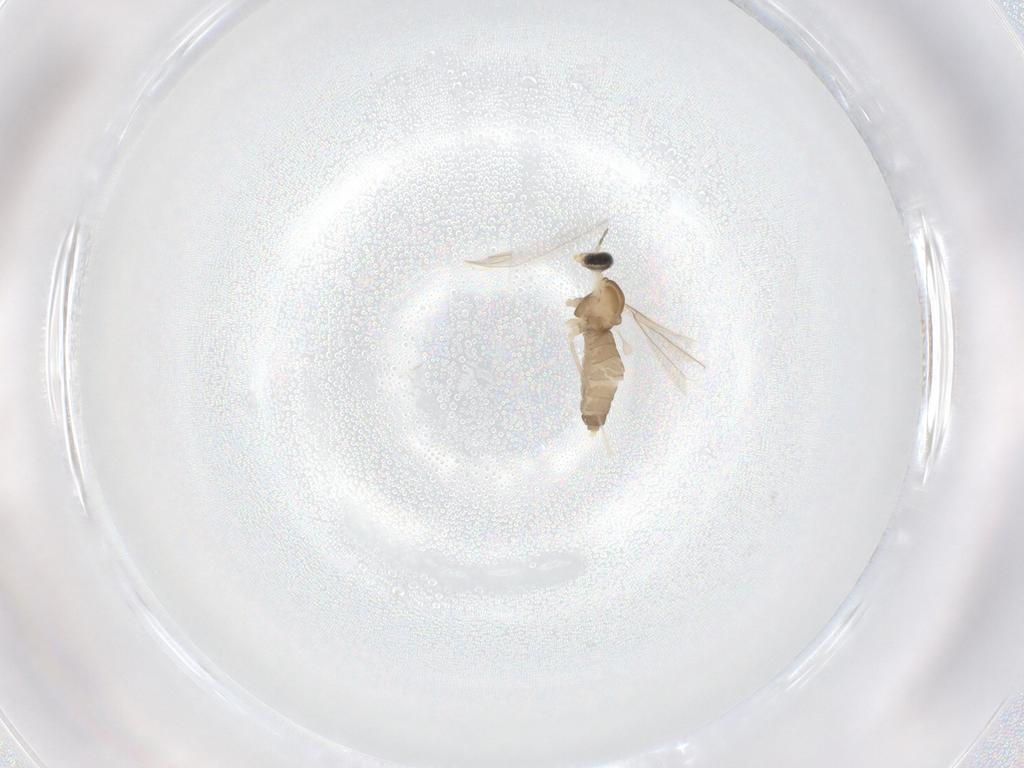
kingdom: Animalia
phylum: Arthropoda
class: Insecta
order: Diptera
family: Cecidomyiidae
